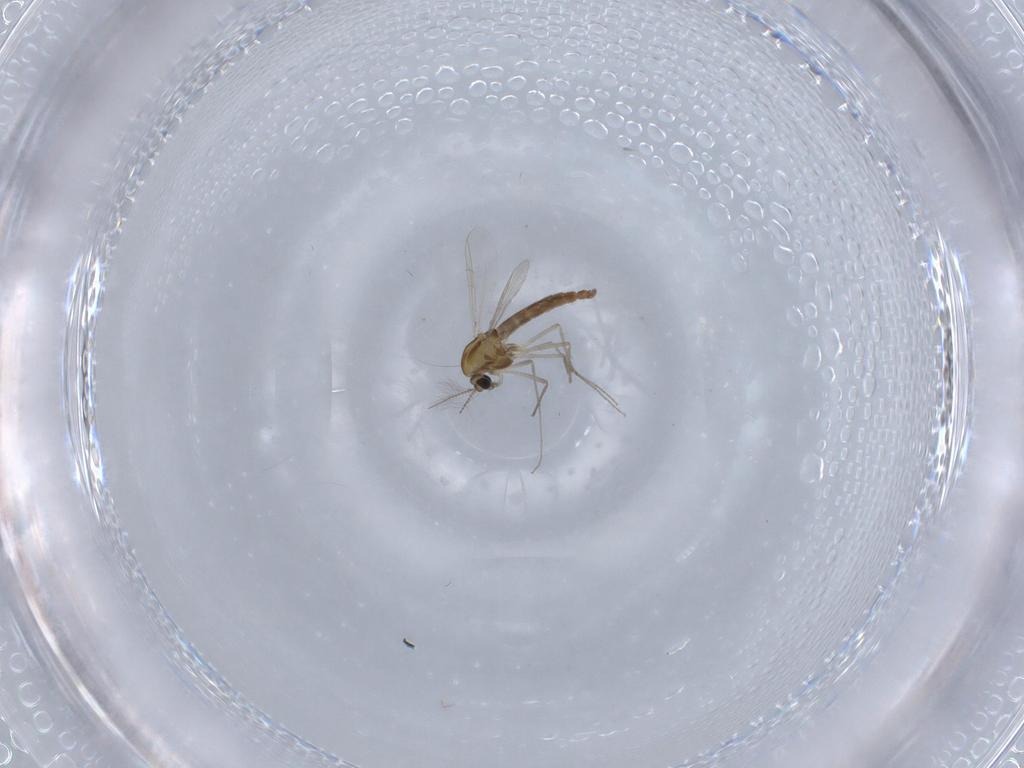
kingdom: Animalia
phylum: Arthropoda
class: Insecta
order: Diptera
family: Chironomidae
